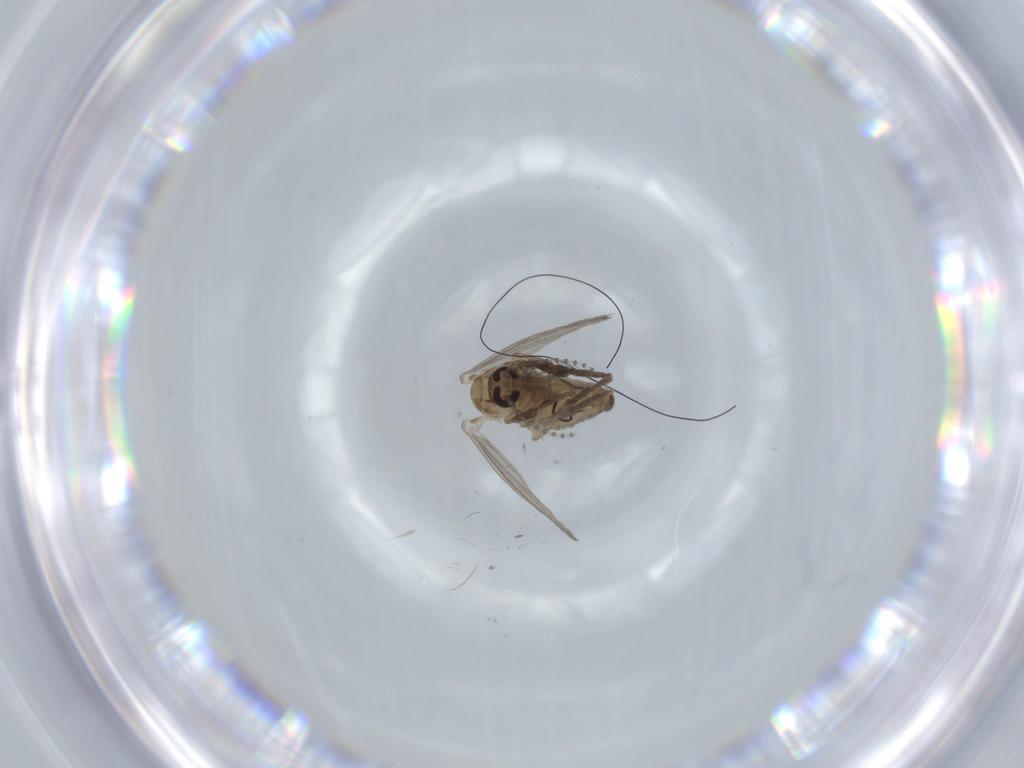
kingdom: Animalia
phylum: Arthropoda
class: Insecta
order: Diptera
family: Psychodidae
